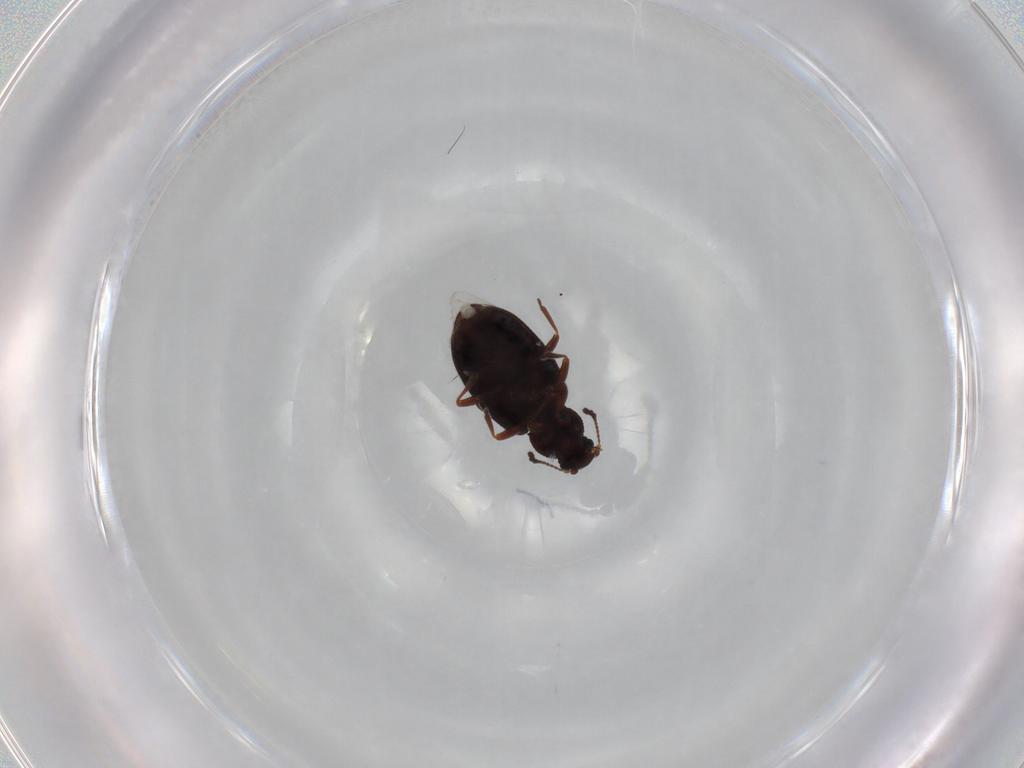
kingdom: Animalia
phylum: Arthropoda
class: Insecta
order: Coleoptera
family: Latridiidae
